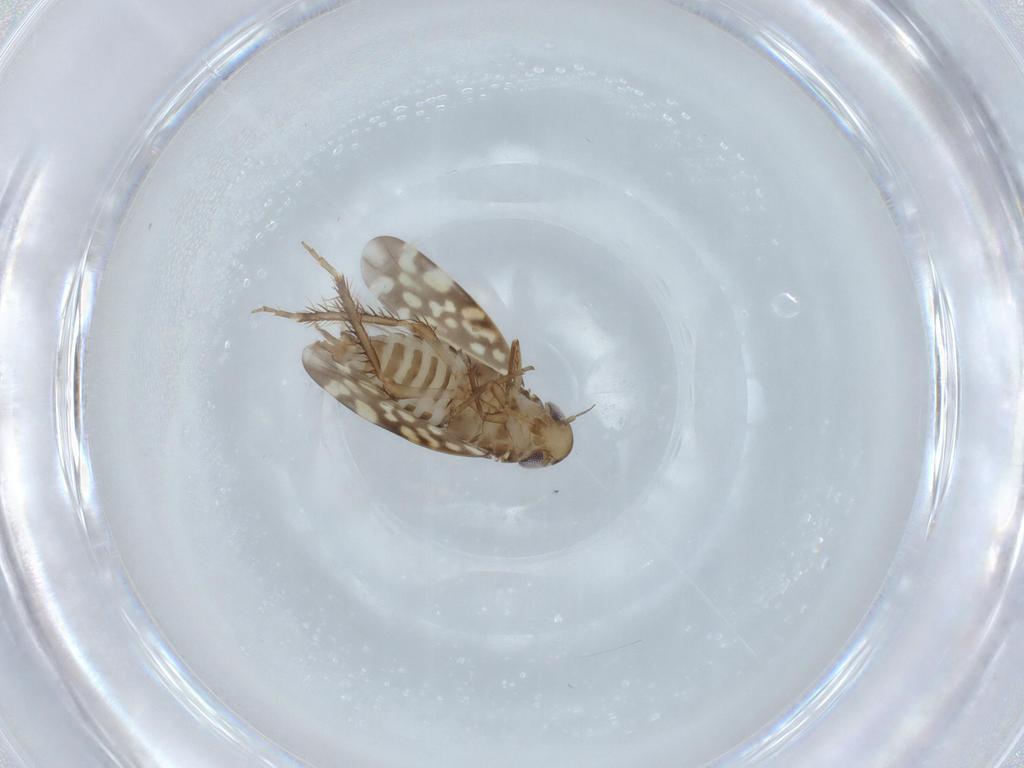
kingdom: Animalia
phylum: Arthropoda
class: Insecta
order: Hemiptera
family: Cicadellidae
